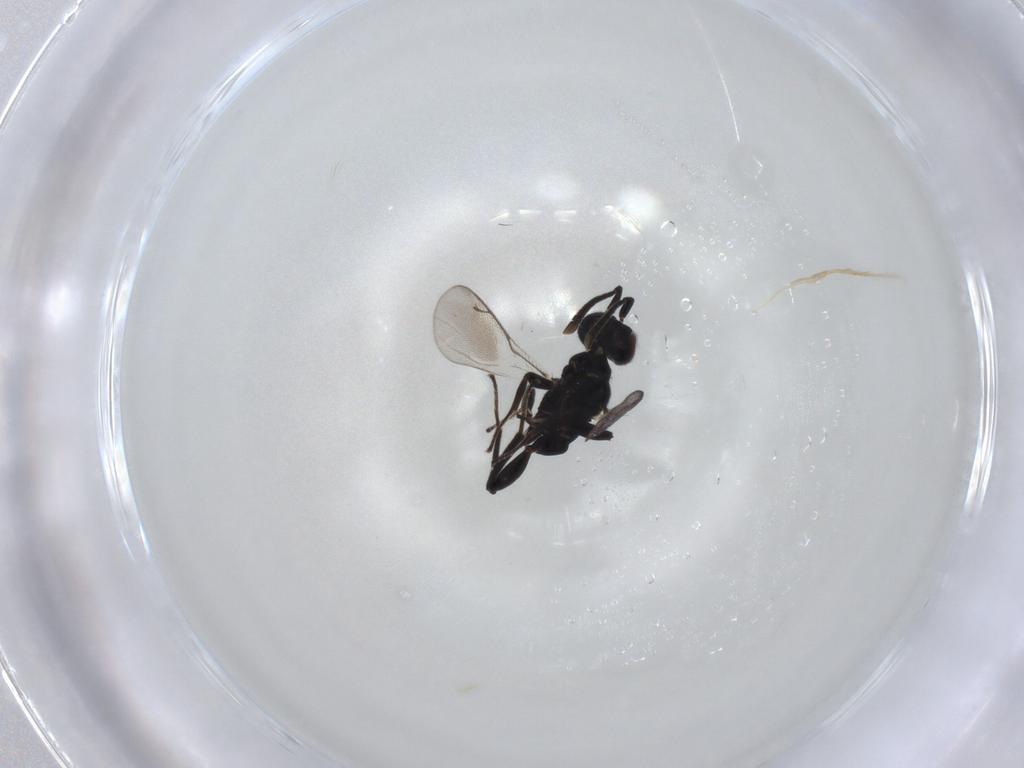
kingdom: Animalia
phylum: Arthropoda
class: Insecta
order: Hymenoptera
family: Eupelmidae
